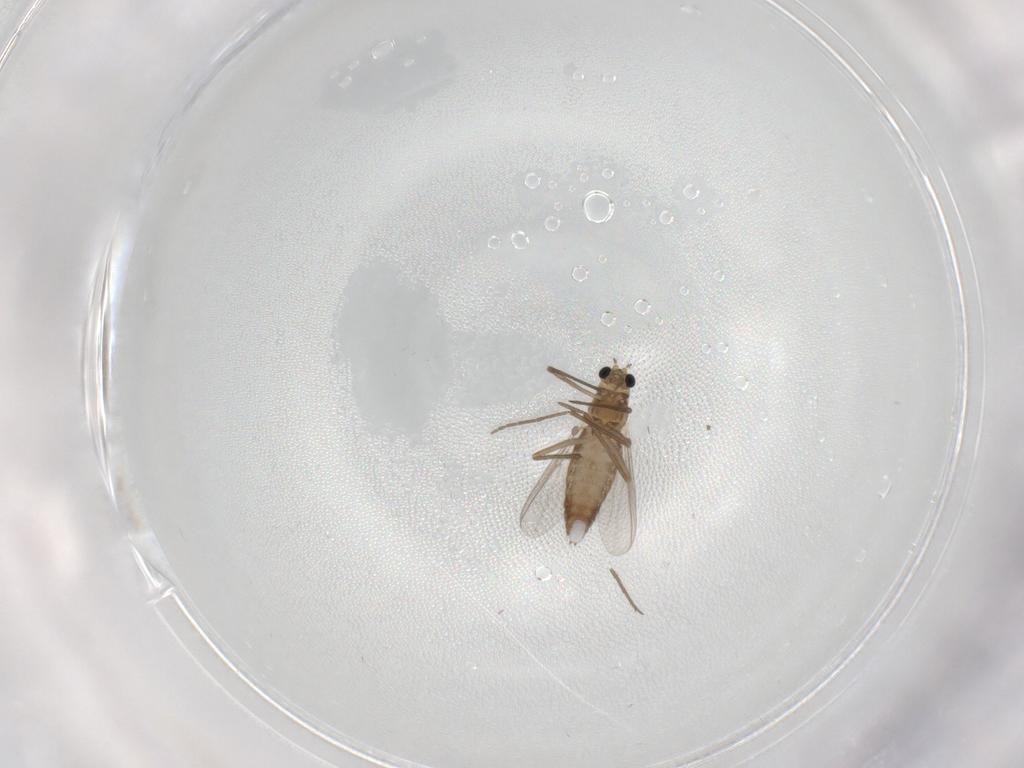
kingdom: Animalia
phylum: Arthropoda
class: Insecta
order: Diptera
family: Chironomidae
